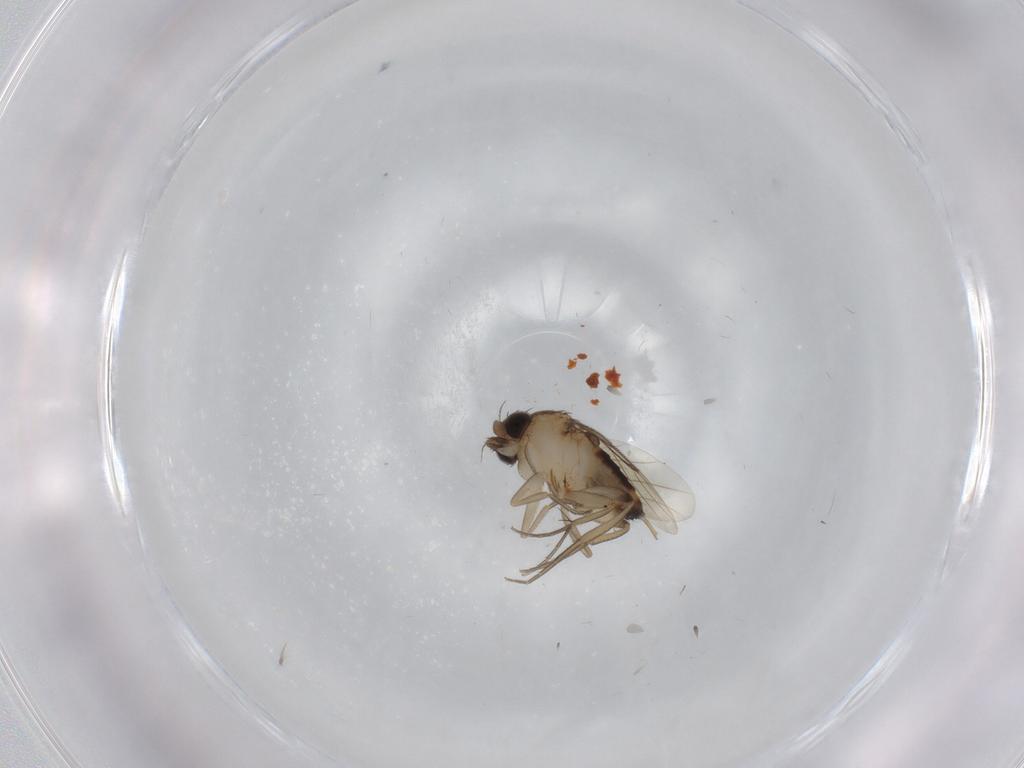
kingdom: Animalia
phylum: Arthropoda
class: Insecta
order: Diptera
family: Phoridae
